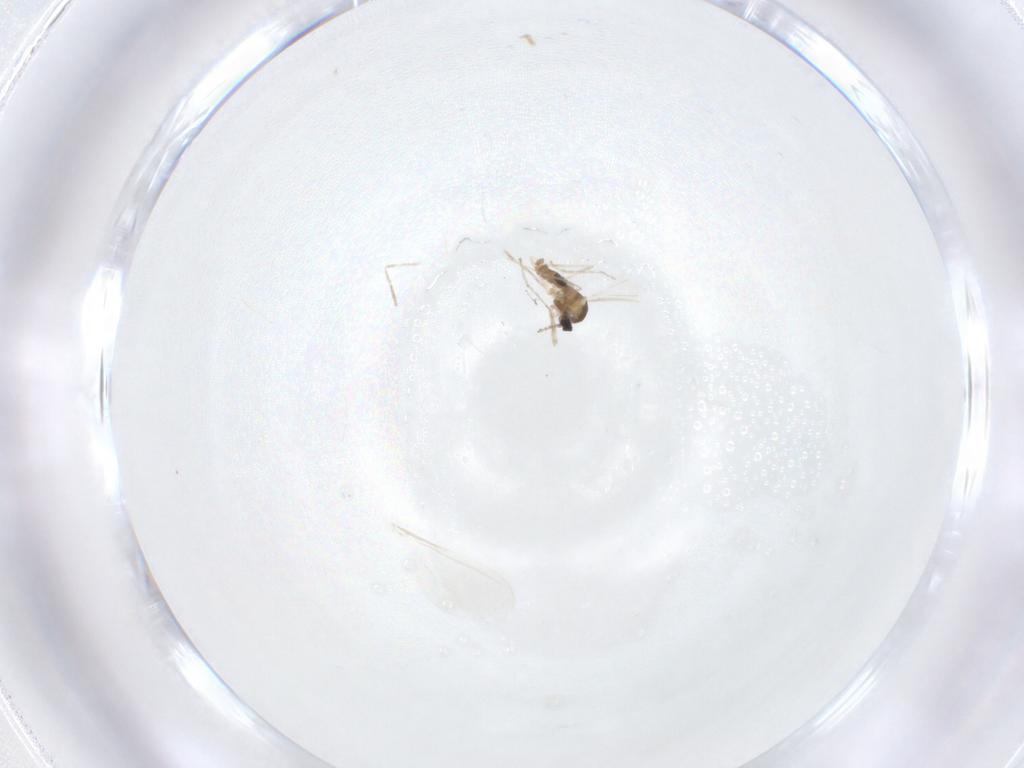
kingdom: Animalia
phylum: Arthropoda
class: Insecta
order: Diptera
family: Cecidomyiidae
